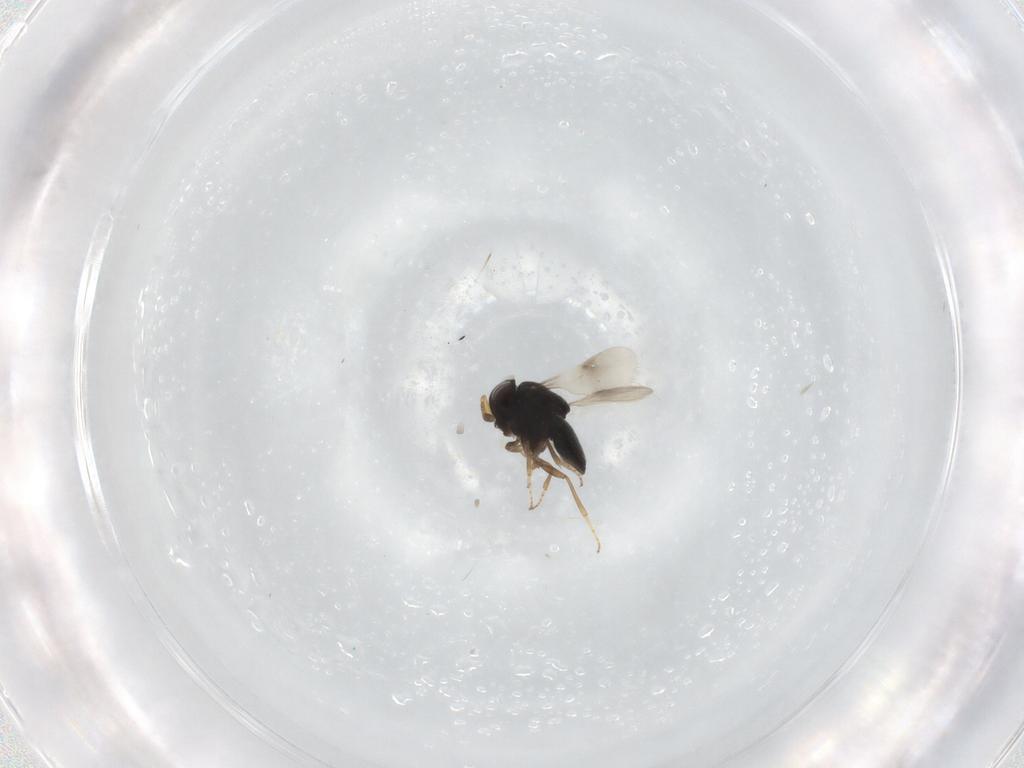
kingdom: Animalia
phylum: Arthropoda
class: Insecta
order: Hymenoptera
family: Scelionidae
